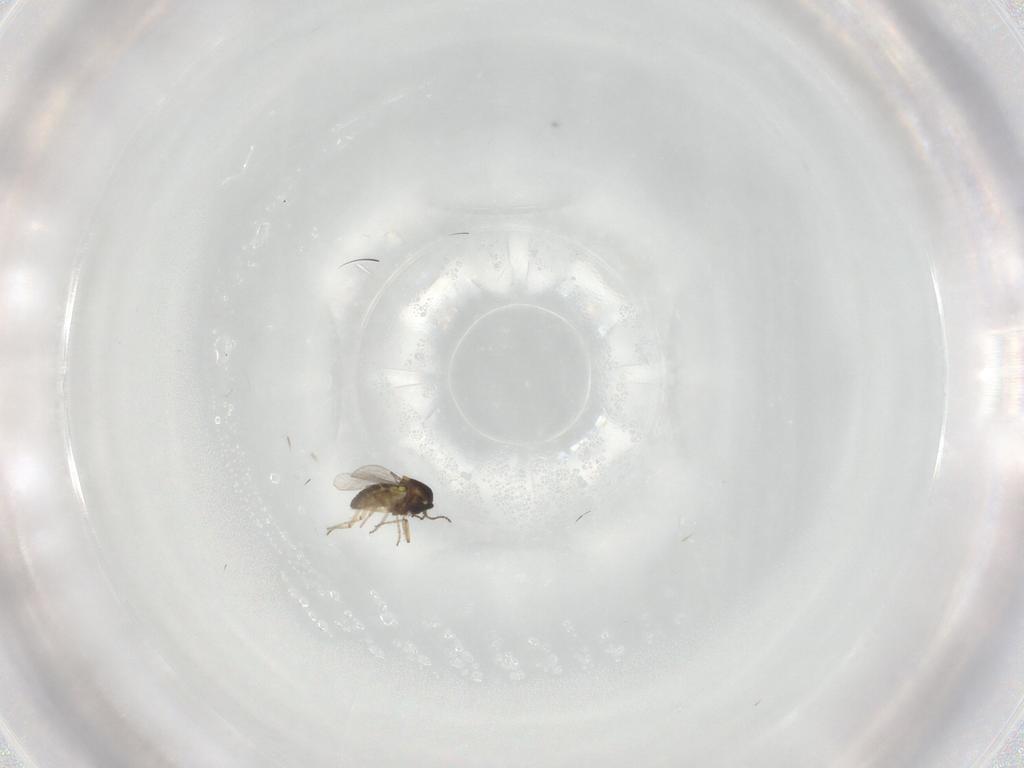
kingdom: Animalia
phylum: Arthropoda
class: Insecta
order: Diptera
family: Ceratopogonidae
